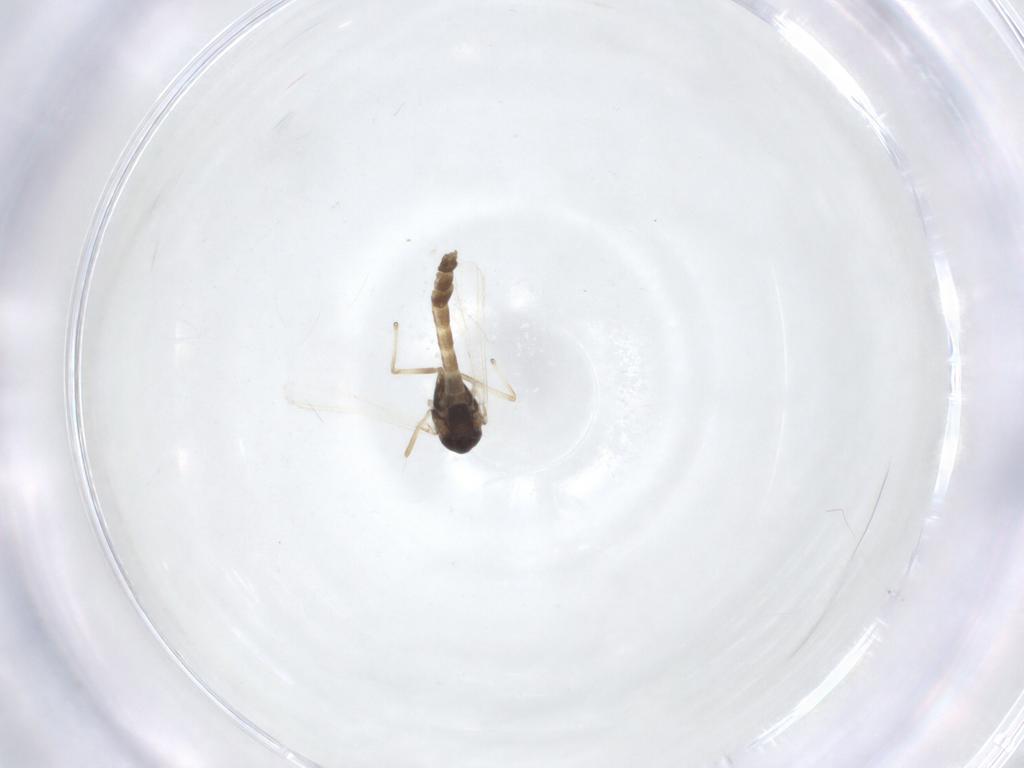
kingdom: Animalia
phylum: Arthropoda
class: Insecta
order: Diptera
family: Chironomidae
